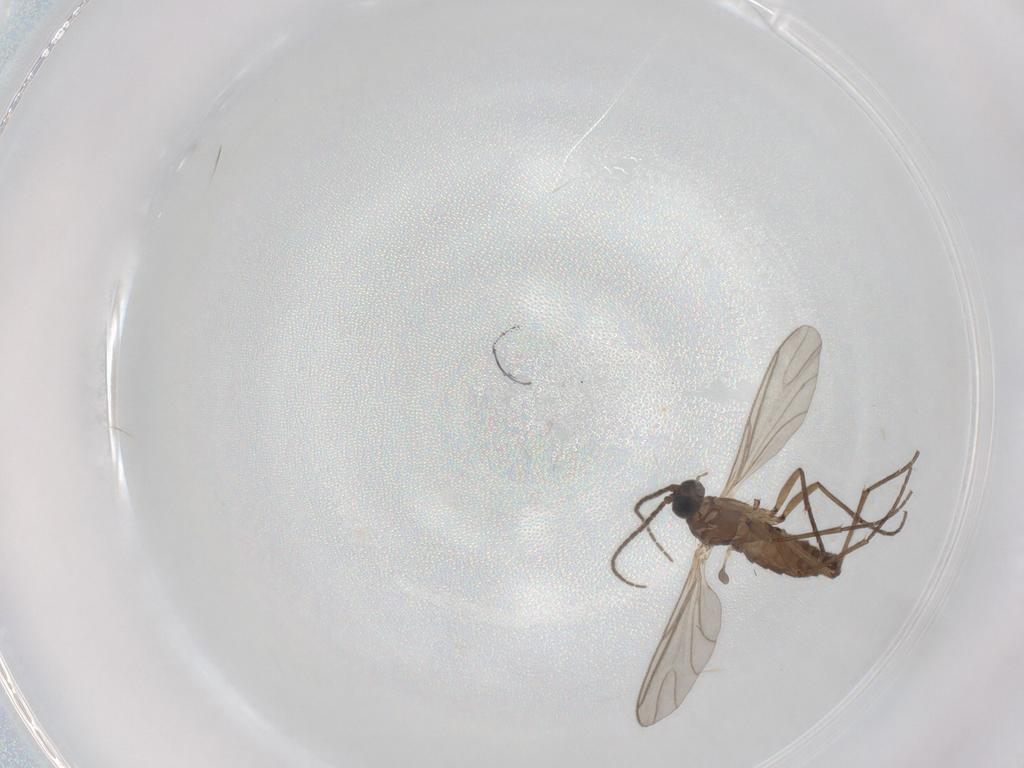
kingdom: Animalia
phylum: Arthropoda
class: Insecta
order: Diptera
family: Sciaridae
